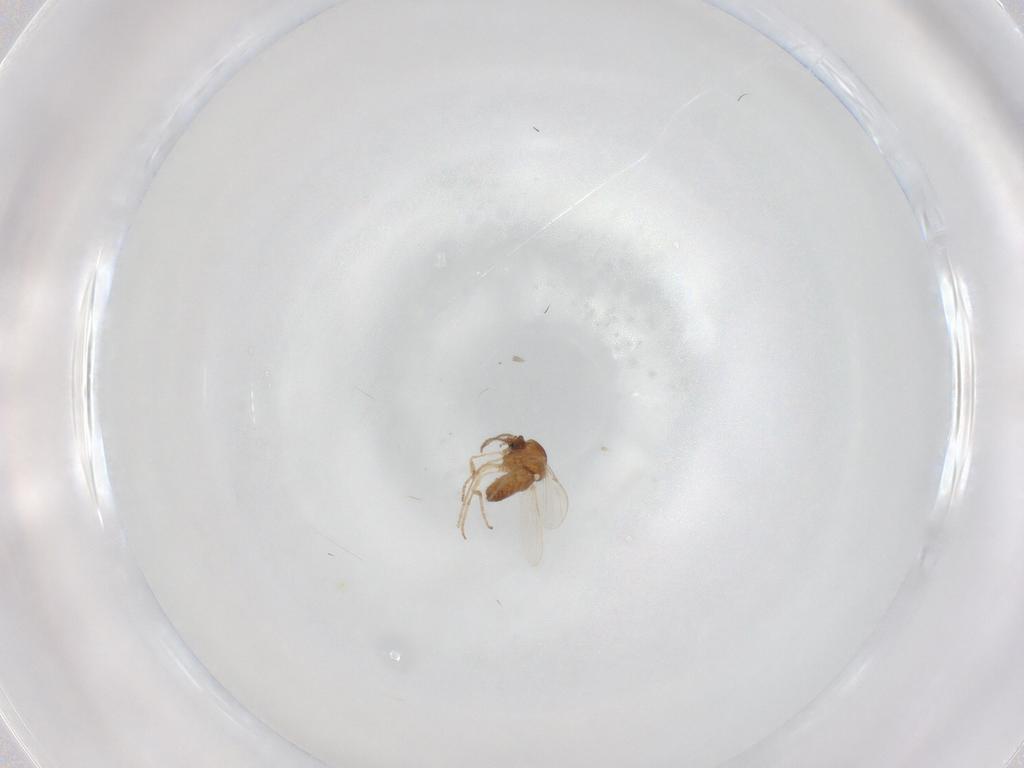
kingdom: Animalia
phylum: Arthropoda
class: Insecta
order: Diptera
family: Ceratopogonidae
